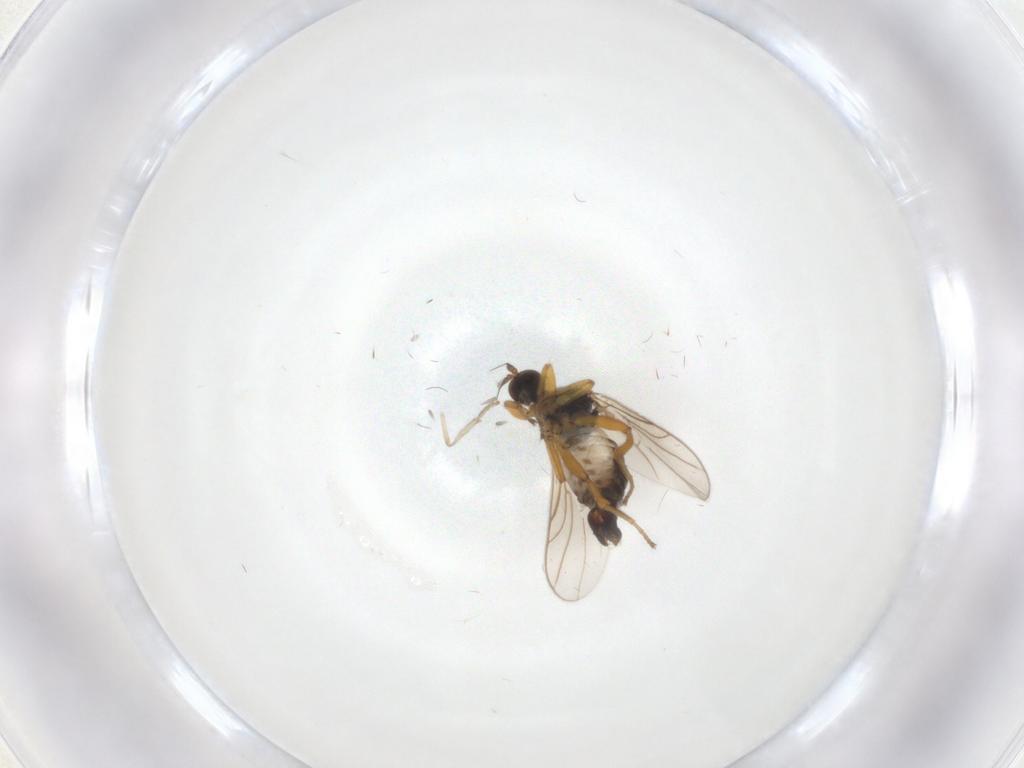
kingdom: Animalia
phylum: Arthropoda
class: Insecta
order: Diptera
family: Hybotidae
